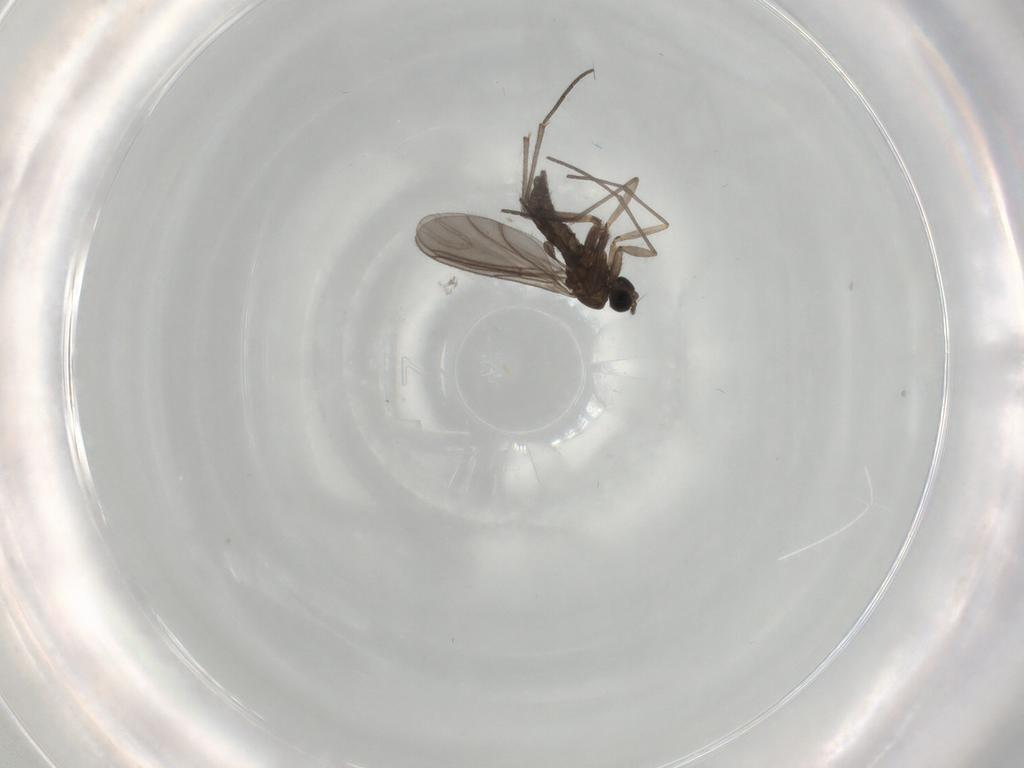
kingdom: Animalia
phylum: Arthropoda
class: Insecta
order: Diptera
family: Sciaridae
